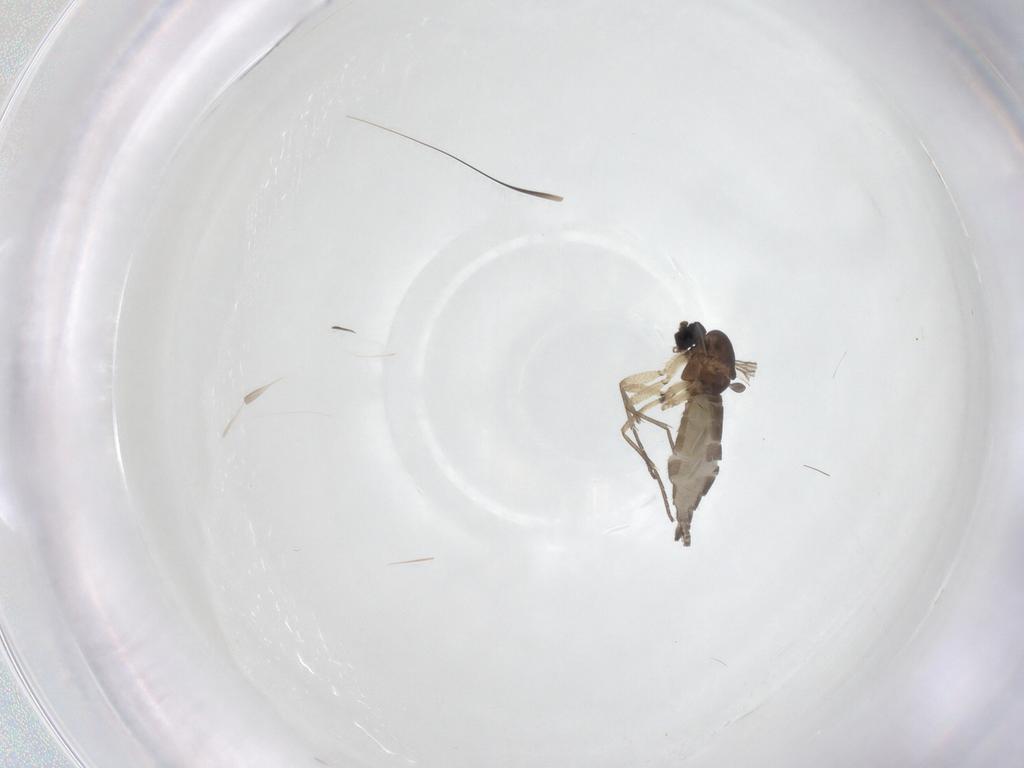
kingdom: Animalia
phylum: Arthropoda
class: Insecta
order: Diptera
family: Sciaridae
